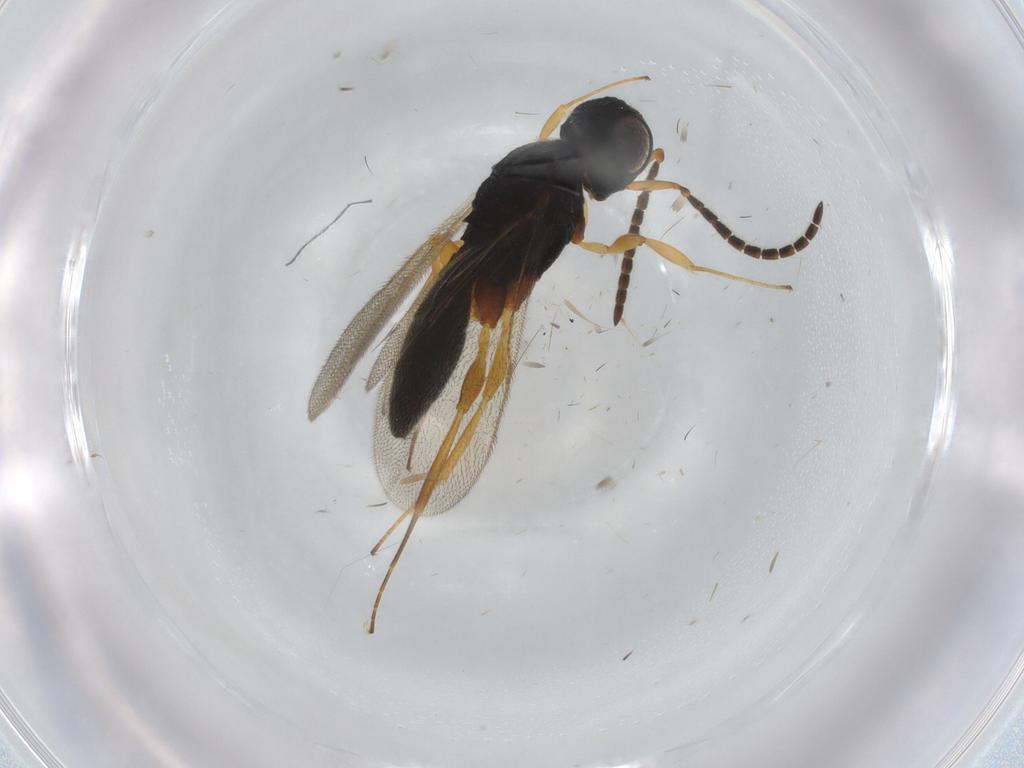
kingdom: Animalia
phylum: Arthropoda
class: Insecta
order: Hymenoptera
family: Scelionidae
